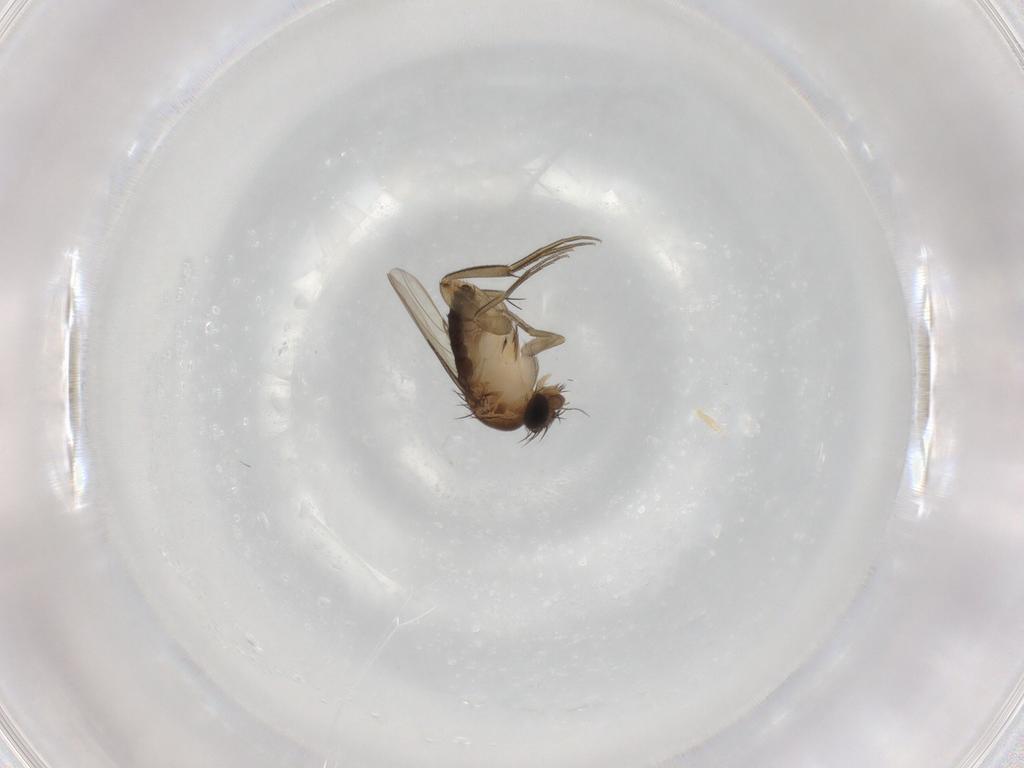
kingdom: Animalia
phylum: Arthropoda
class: Insecta
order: Diptera
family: Phoridae
